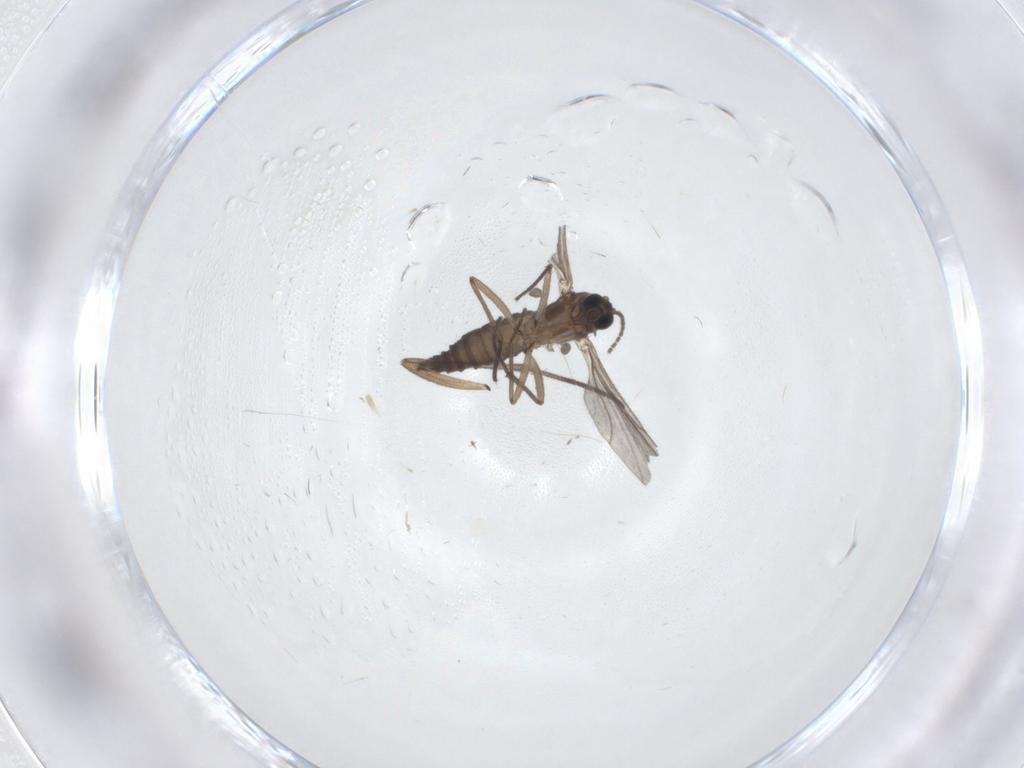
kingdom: Animalia
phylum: Arthropoda
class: Insecta
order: Diptera
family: Sciaridae
